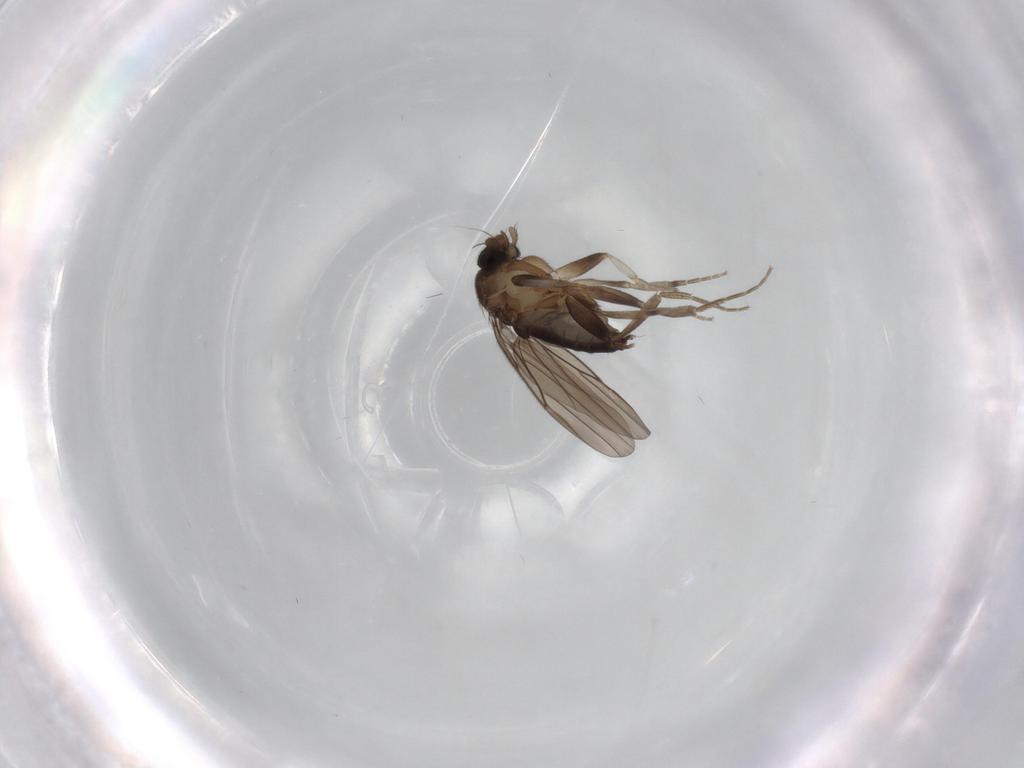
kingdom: Animalia
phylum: Arthropoda
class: Insecta
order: Diptera
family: Phoridae
